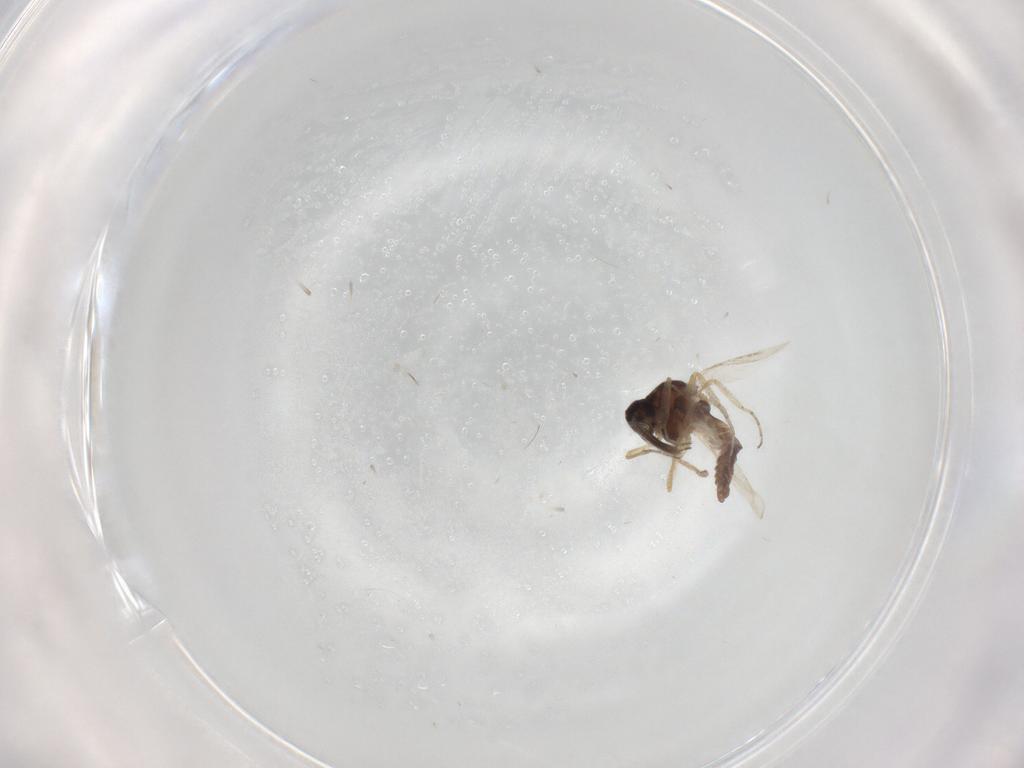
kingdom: Animalia
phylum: Arthropoda
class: Insecta
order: Diptera
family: Ceratopogonidae
